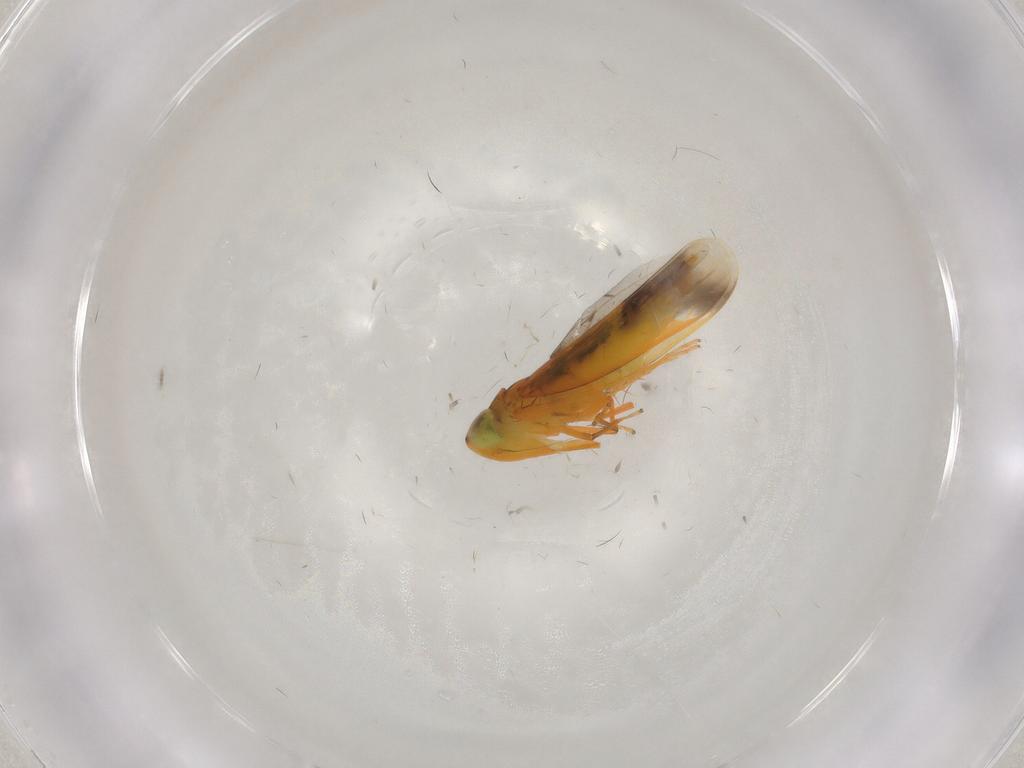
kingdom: Animalia
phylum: Arthropoda
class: Insecta
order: Hemiptera
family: Cicadellidae
